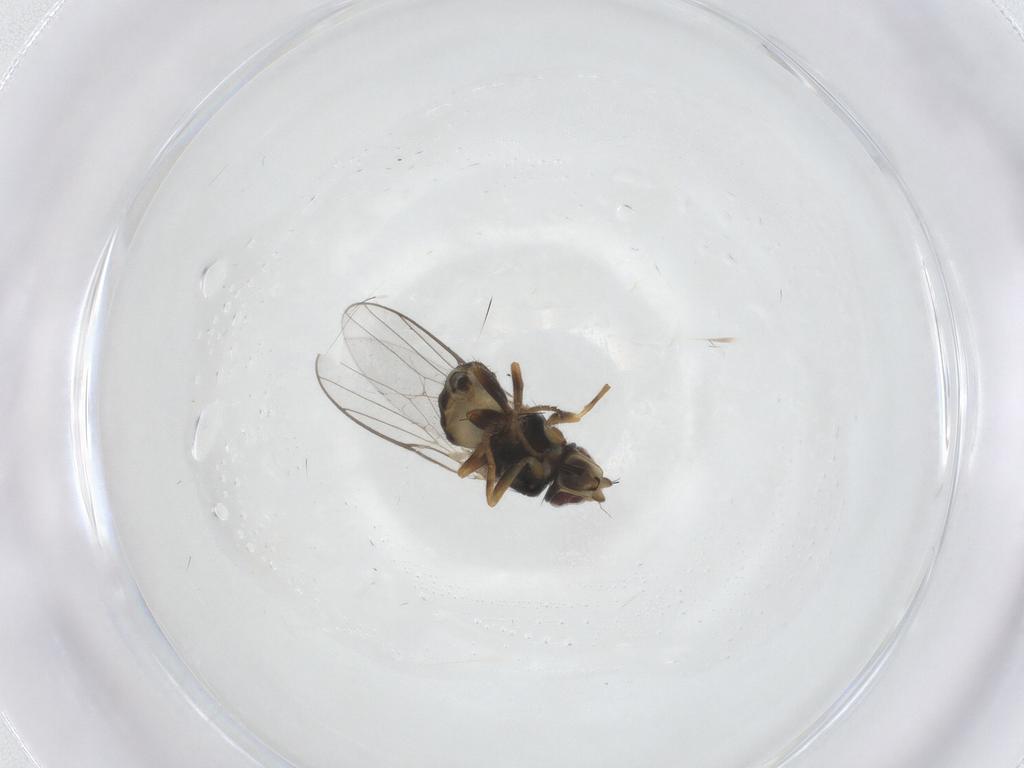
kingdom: Animalia
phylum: Arthropoda
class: Insecta
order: Diptera
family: Chloropidae
